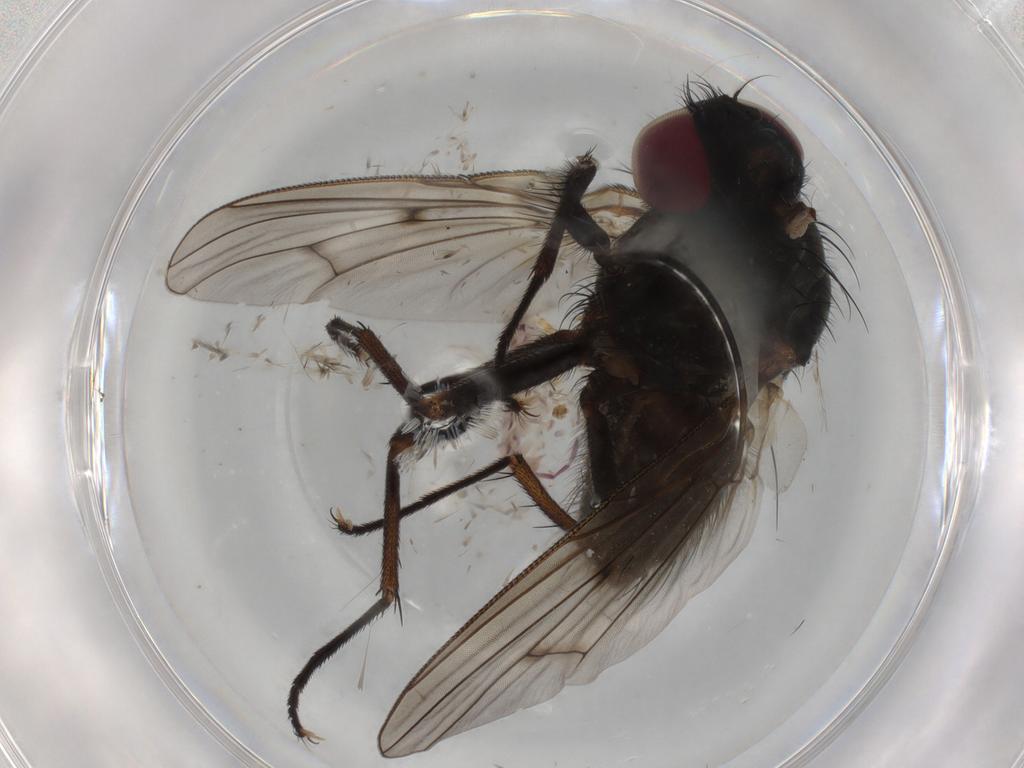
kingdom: Animalia
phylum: Arthropoda
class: Insecta
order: Diptera
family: Muscidae
